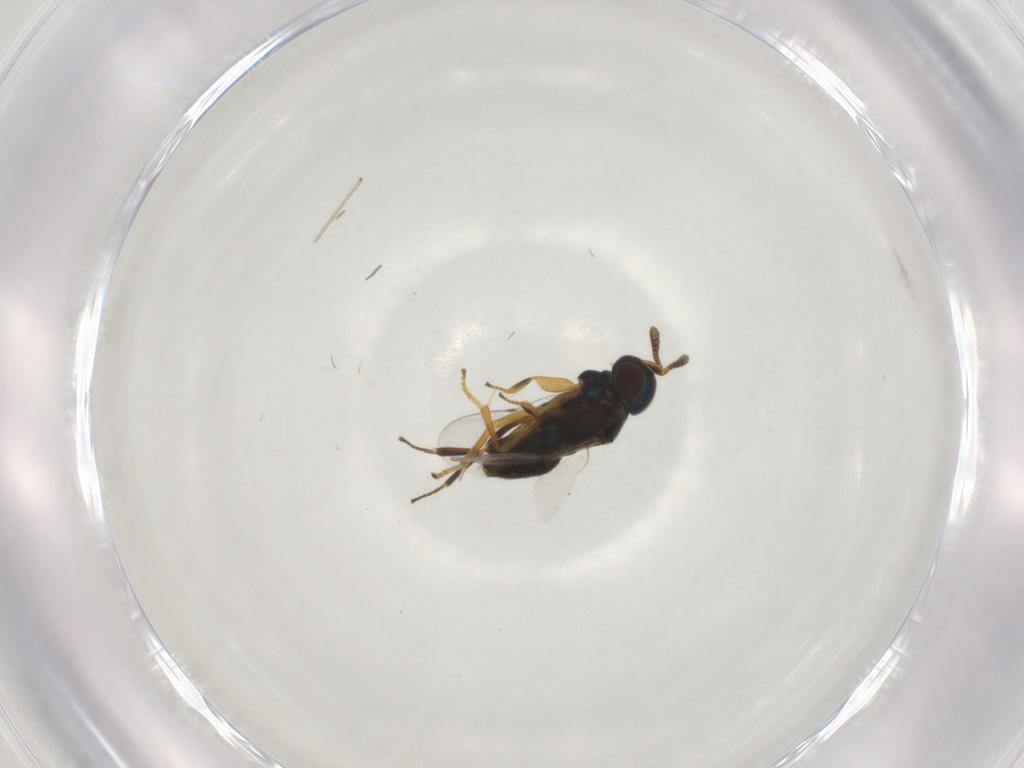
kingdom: Animalia
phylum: Arthropoda
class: Insecta
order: Hymenoptera
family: Encyrtidae
